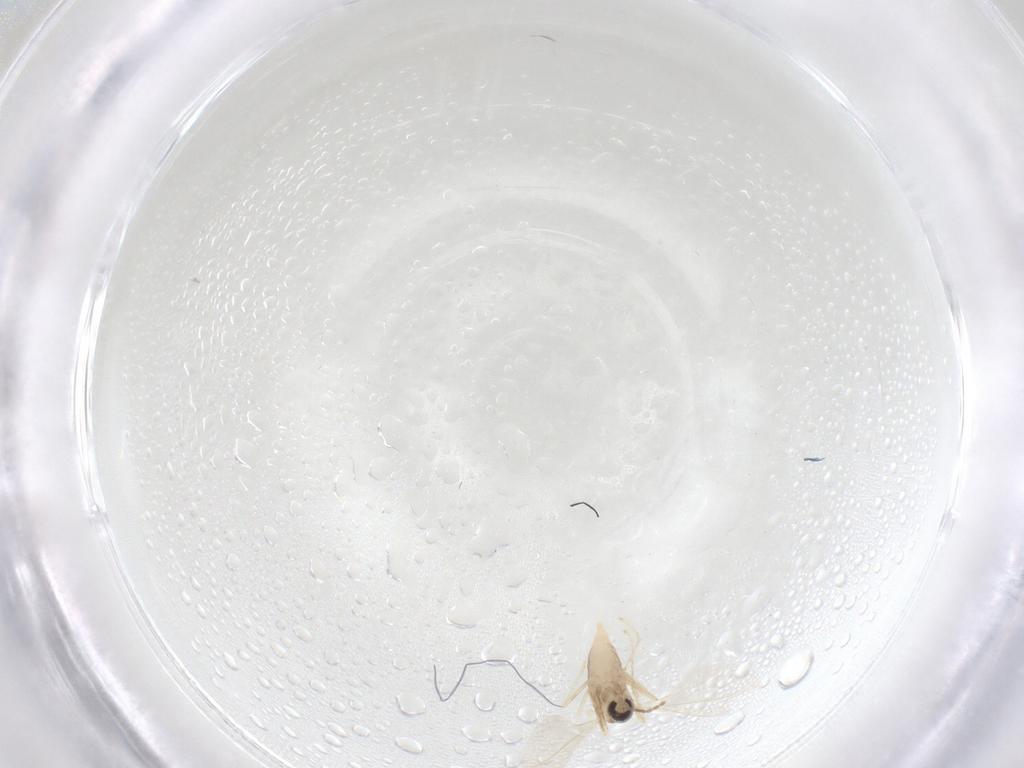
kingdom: Animalia
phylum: Arthropoda
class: Insecta
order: Diptera
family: Cecidomyiidae
